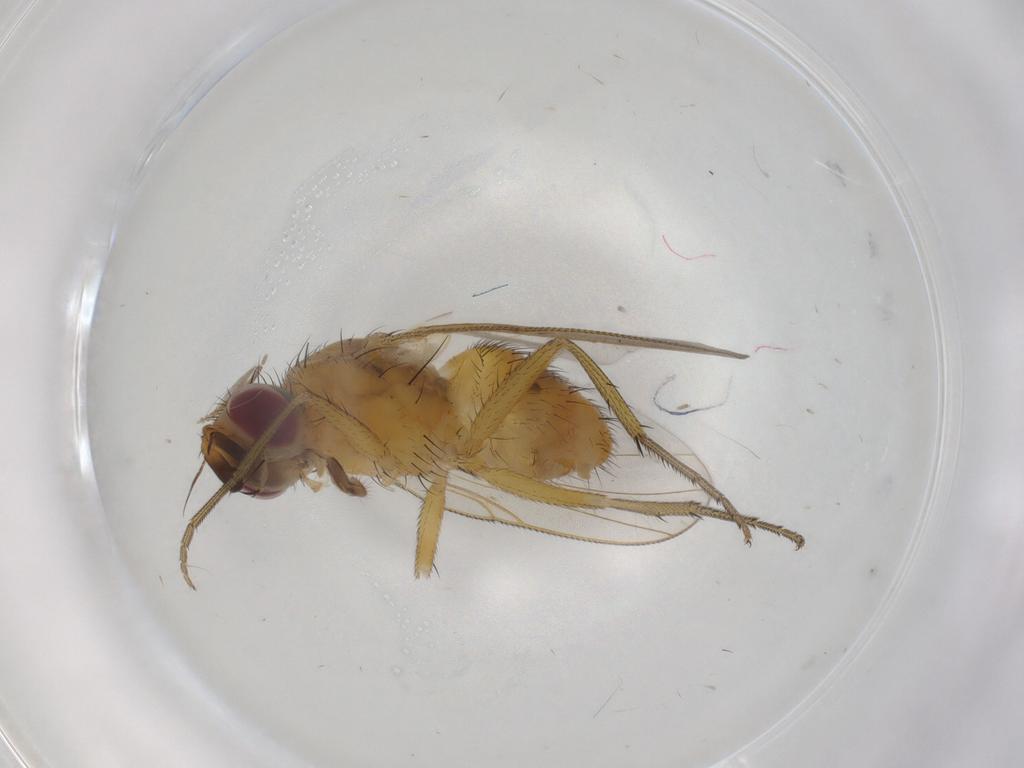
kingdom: Animalia
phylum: Arthropoda
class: Insecta
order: Diptera
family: Muscidae
